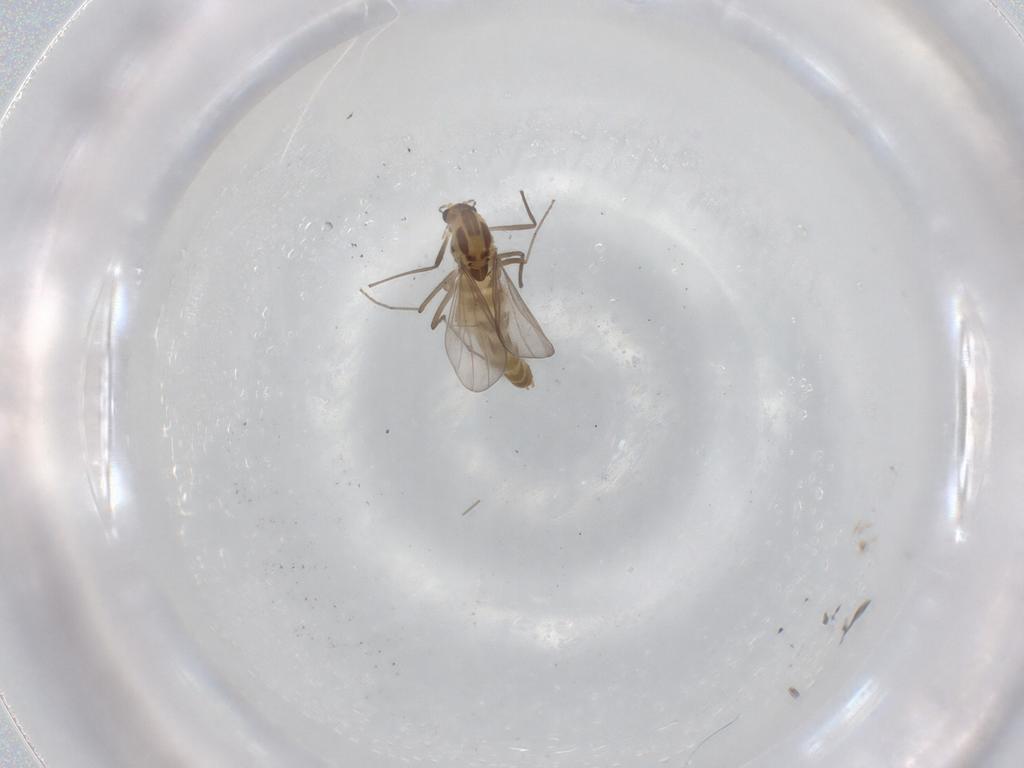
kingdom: Animalia
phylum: Arthropoda
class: Insecta
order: Diptera
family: Chironomidae
